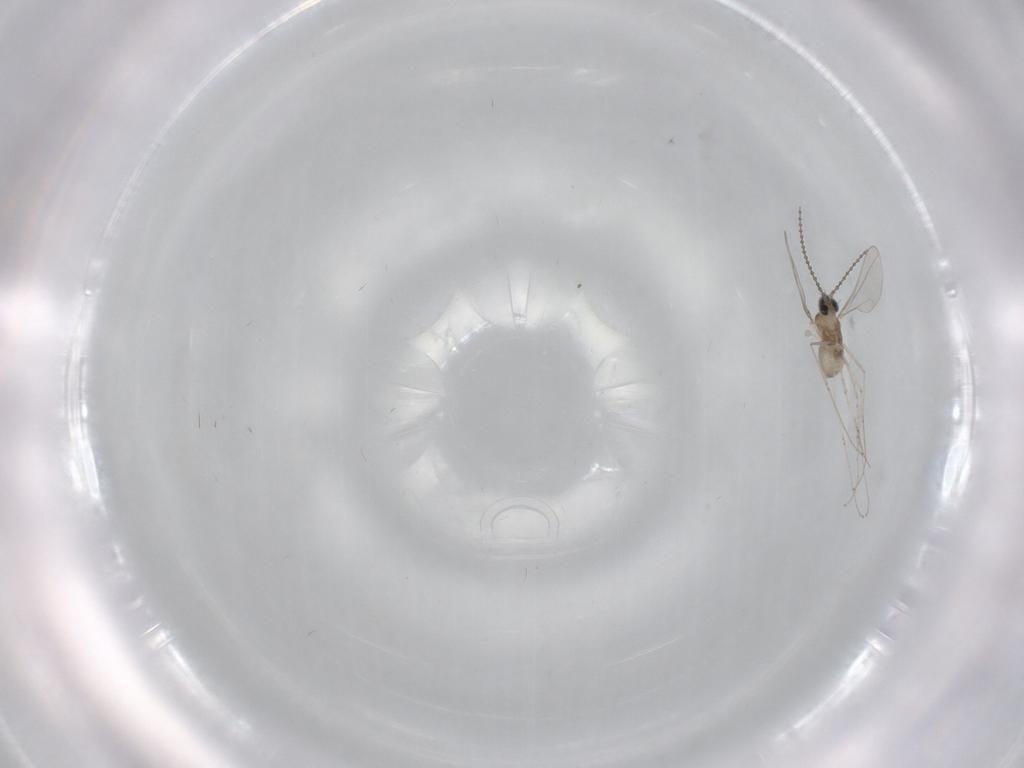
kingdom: Animalia
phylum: Arthropoda
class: Insecta
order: Diptera
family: Cecidomyiidae
